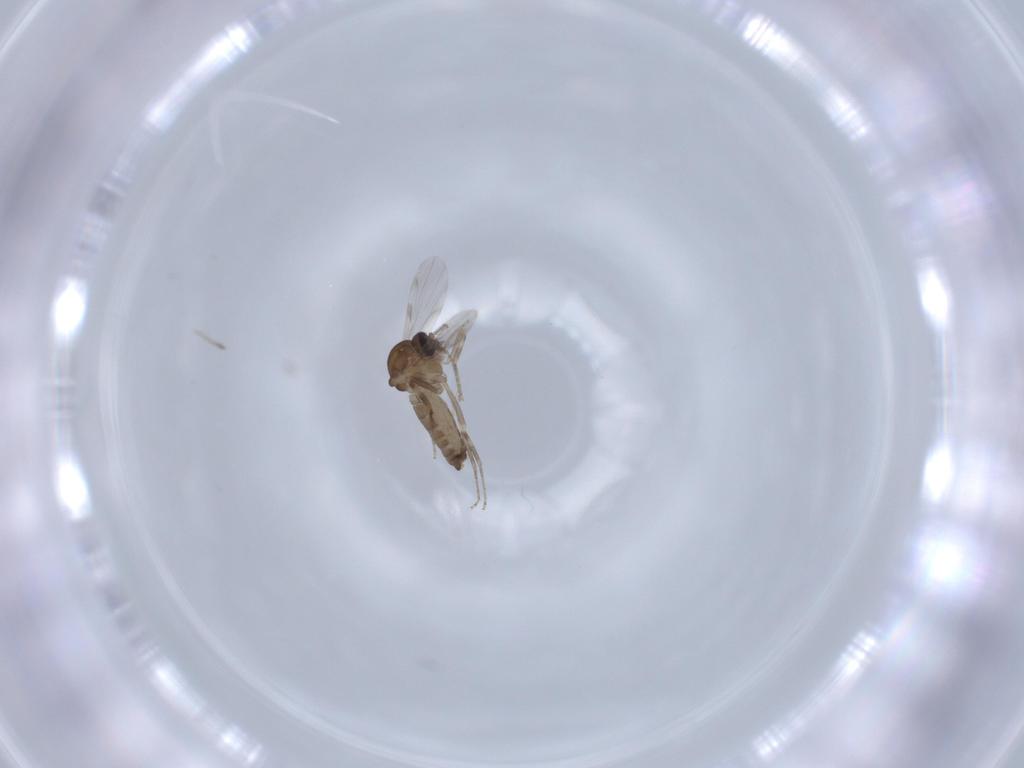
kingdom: Animalia
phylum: Arthropoda
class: Insecta
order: Diptera
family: Ceratopogonidae
